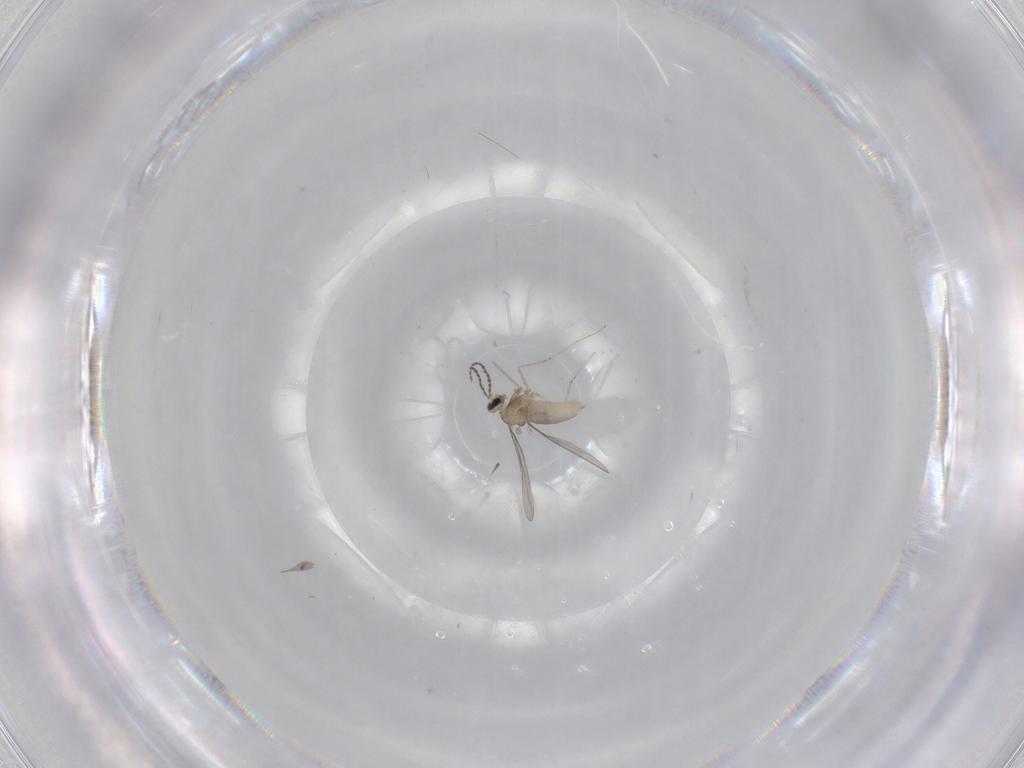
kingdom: Animalia
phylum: Arthropoda
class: Insecta
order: Diptera
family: Cecidomyiidae
